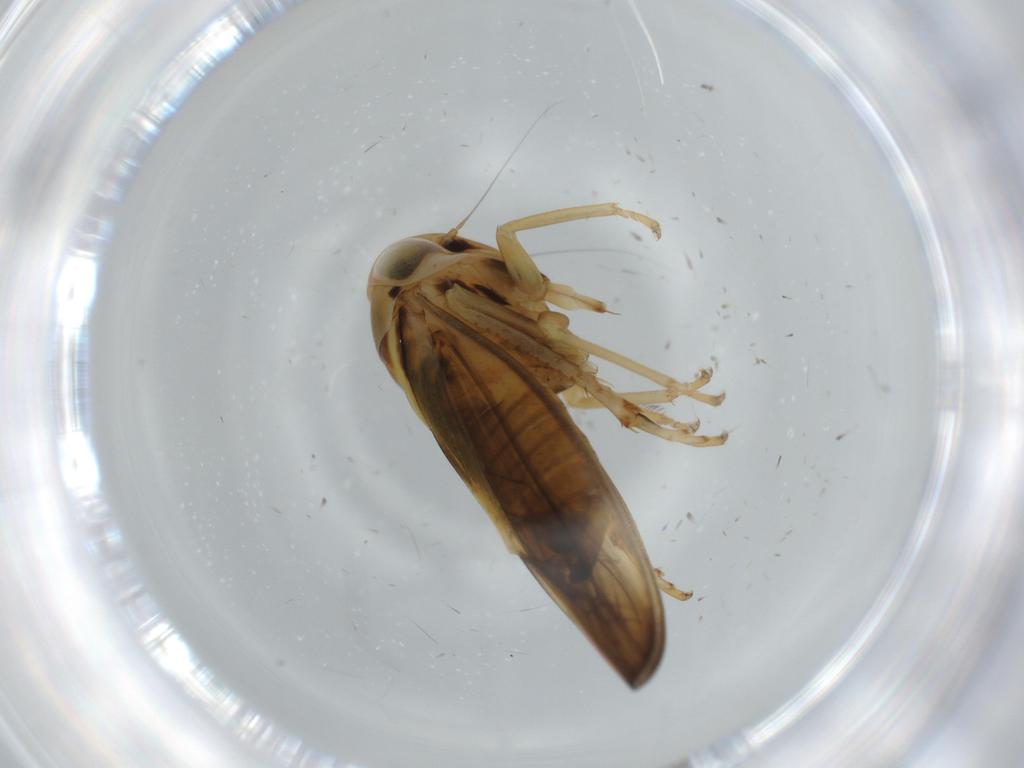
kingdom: Animalia
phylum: Arthropoda
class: Insecta
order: Hemiptera
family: Cicadellidae
